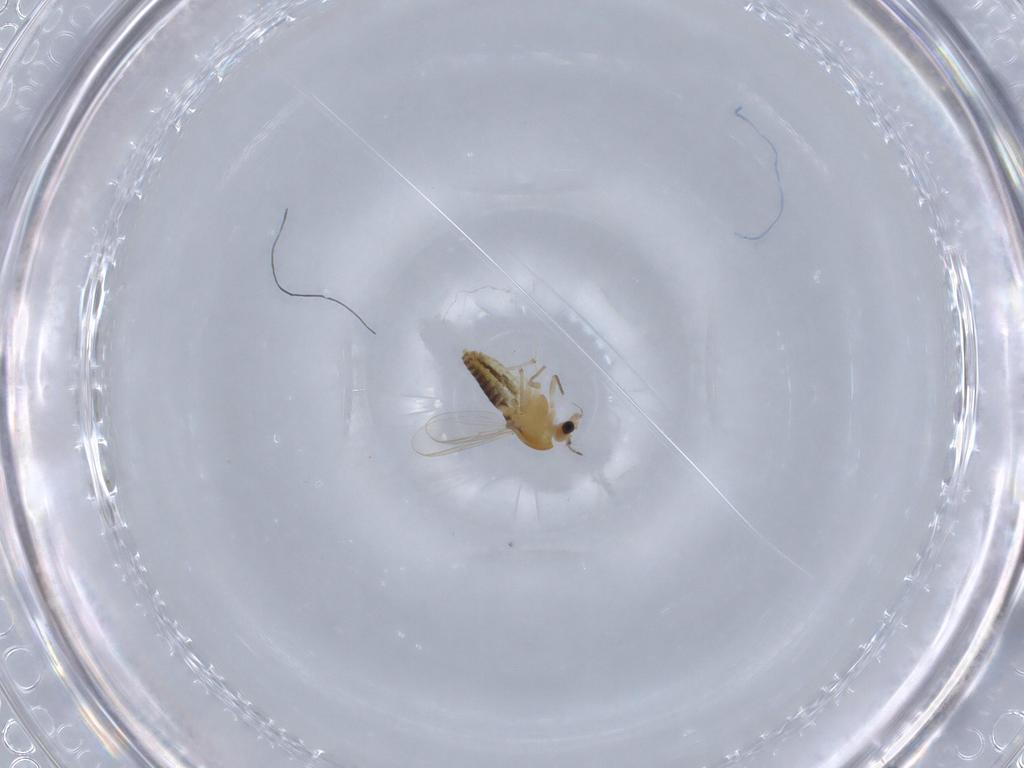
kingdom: Animalia
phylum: Arthropoda
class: Insecta
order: Diptera
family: Chironomidae
